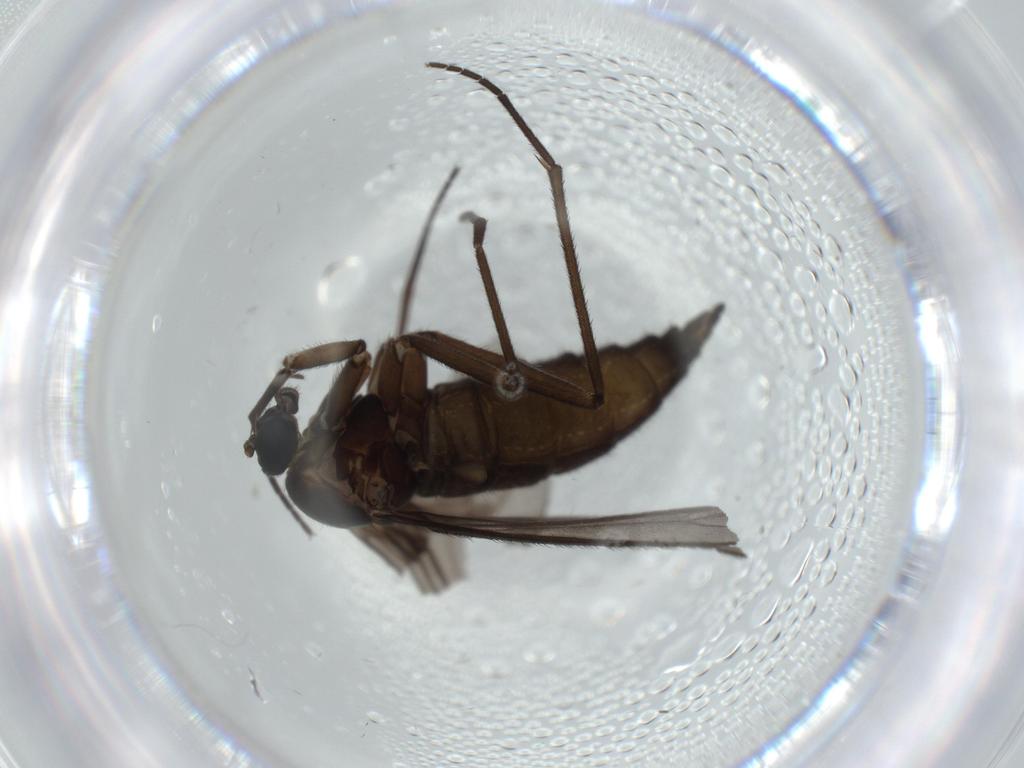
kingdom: Animalia
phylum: Arthropoda
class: Insecta
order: Diptera
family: Sciaridae
